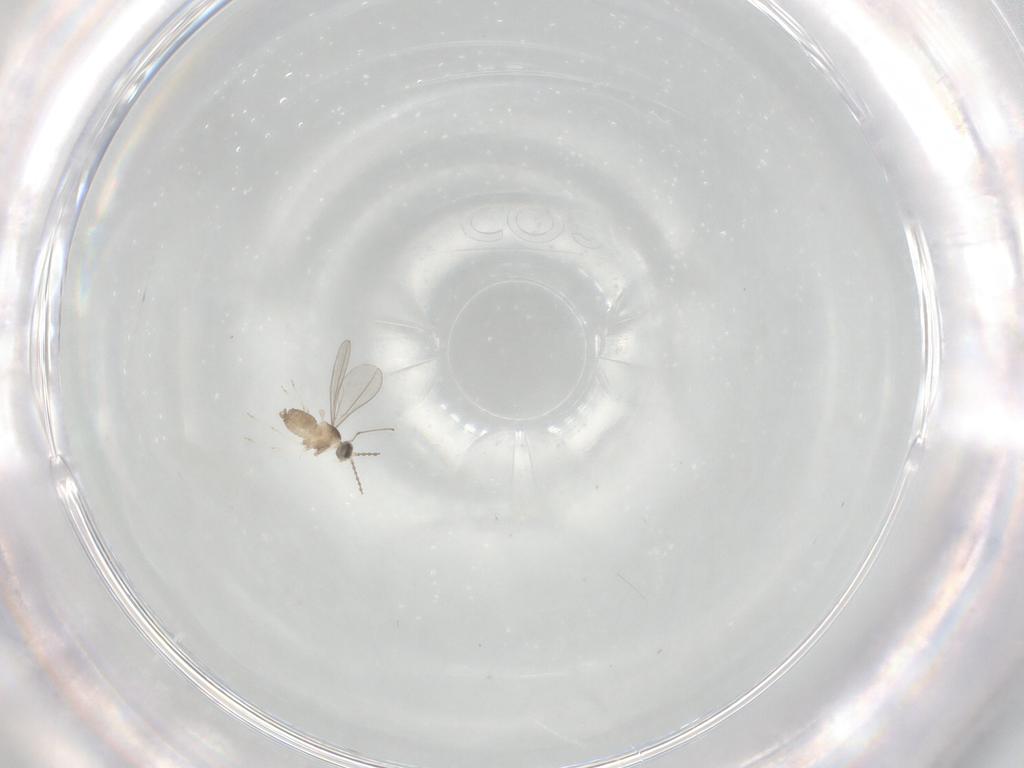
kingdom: Animalia
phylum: Arthropoda
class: Insecta
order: Diptera
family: Cecidomyiidae
